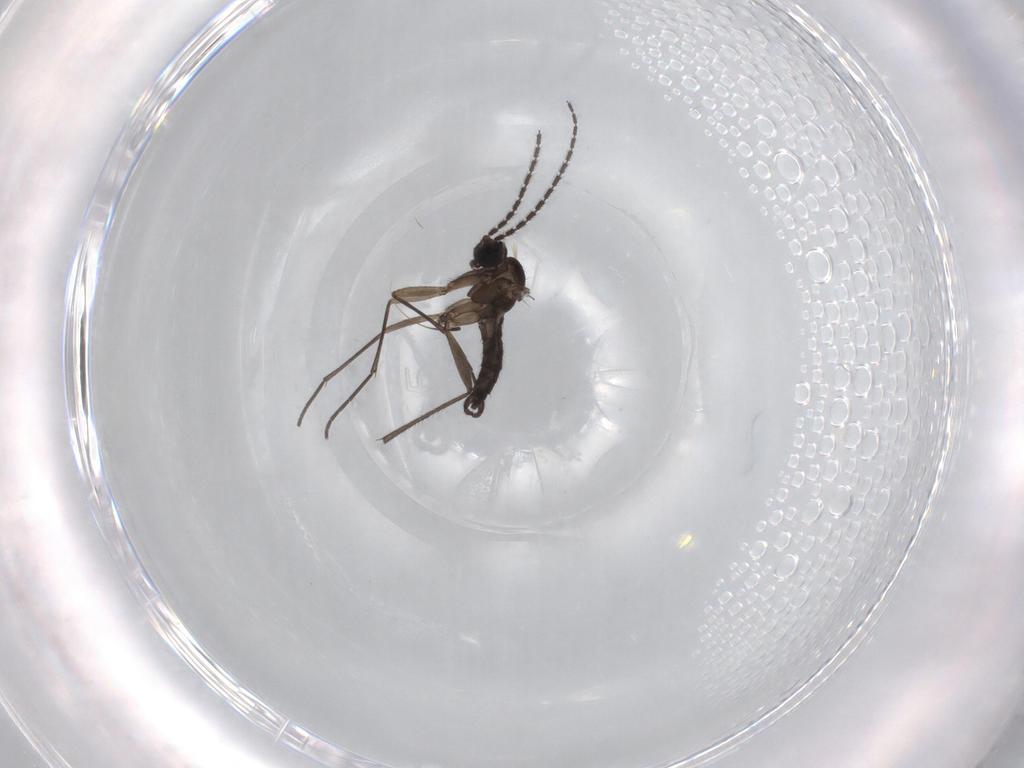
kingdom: Animalia
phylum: Arthropoda
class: Insecta
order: Diptera
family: Sciaridae
